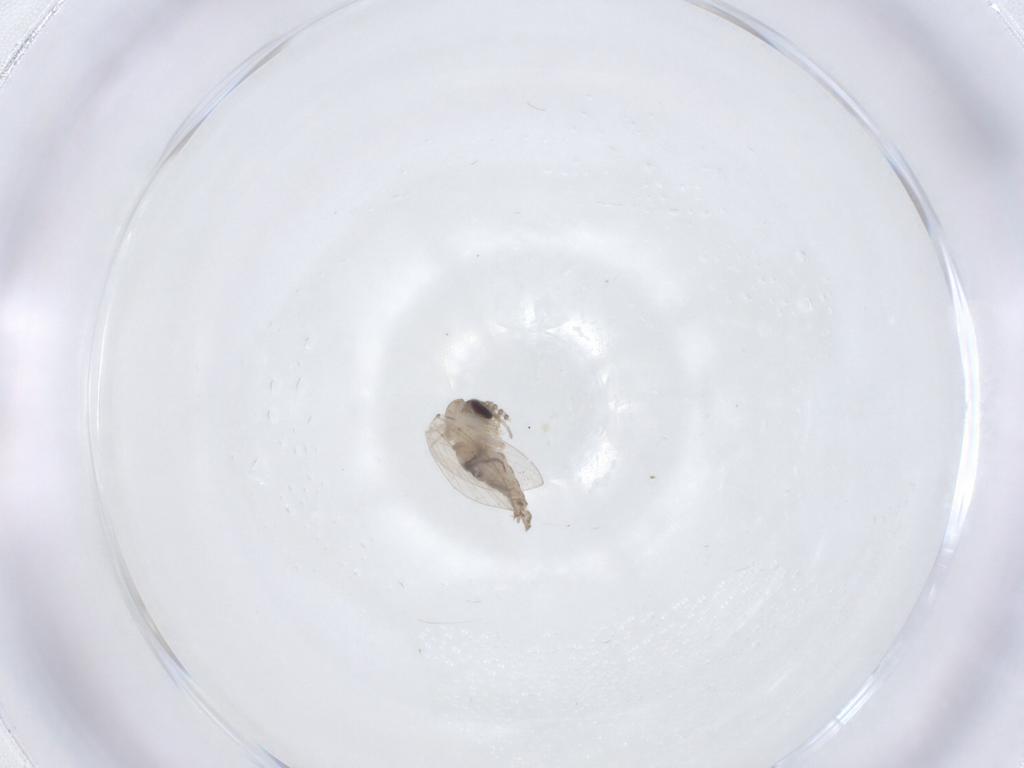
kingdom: Animalia
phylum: Arthropoda
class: Insecta
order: Diptera
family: Psychodidae
